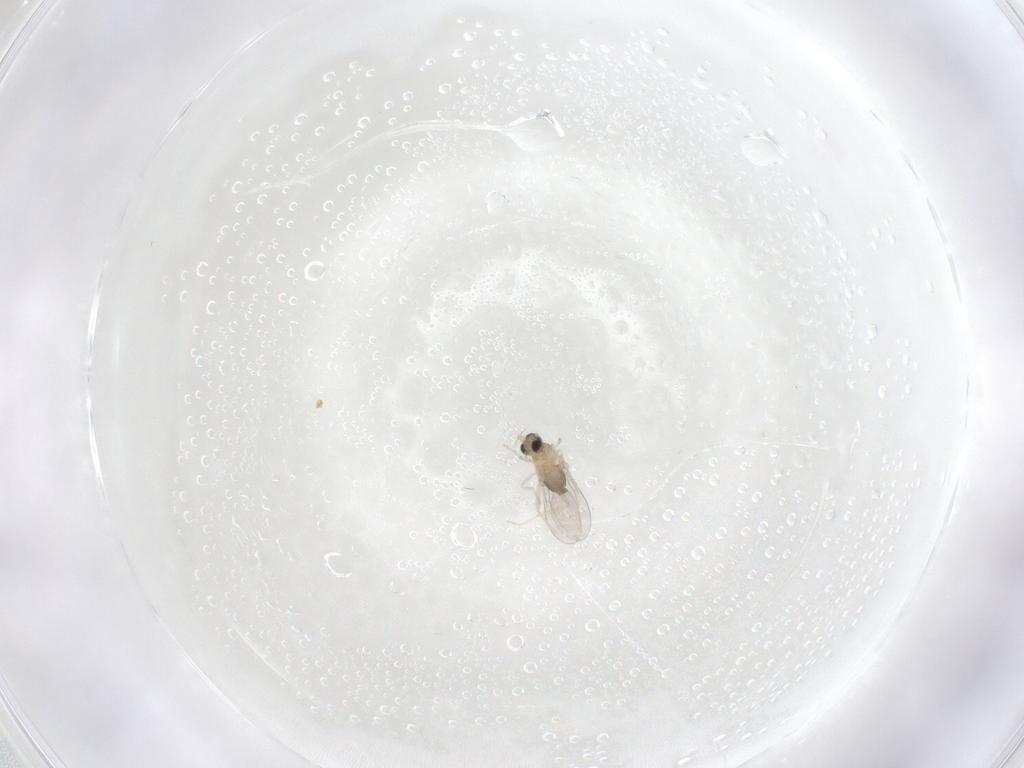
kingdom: Animalia
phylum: Arthropoda
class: Insecta
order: Diptera
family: Cecidomyiidae
